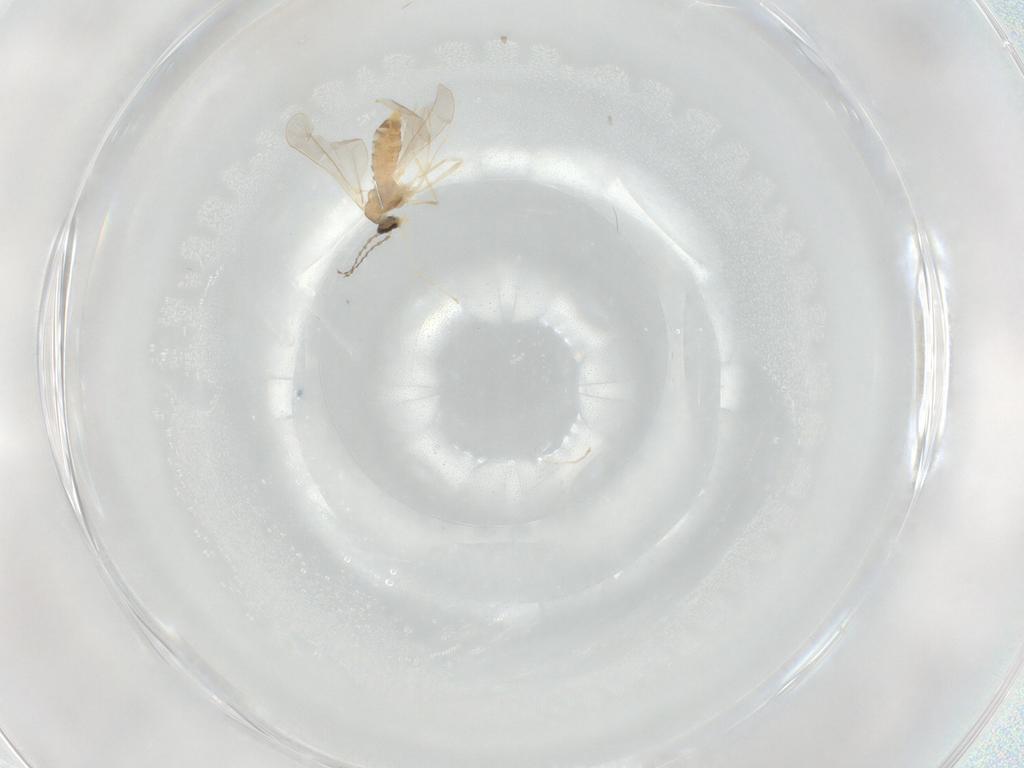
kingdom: Animalia
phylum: Arthropoda
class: Insecta
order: Diptera
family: Cecidomyiidae
